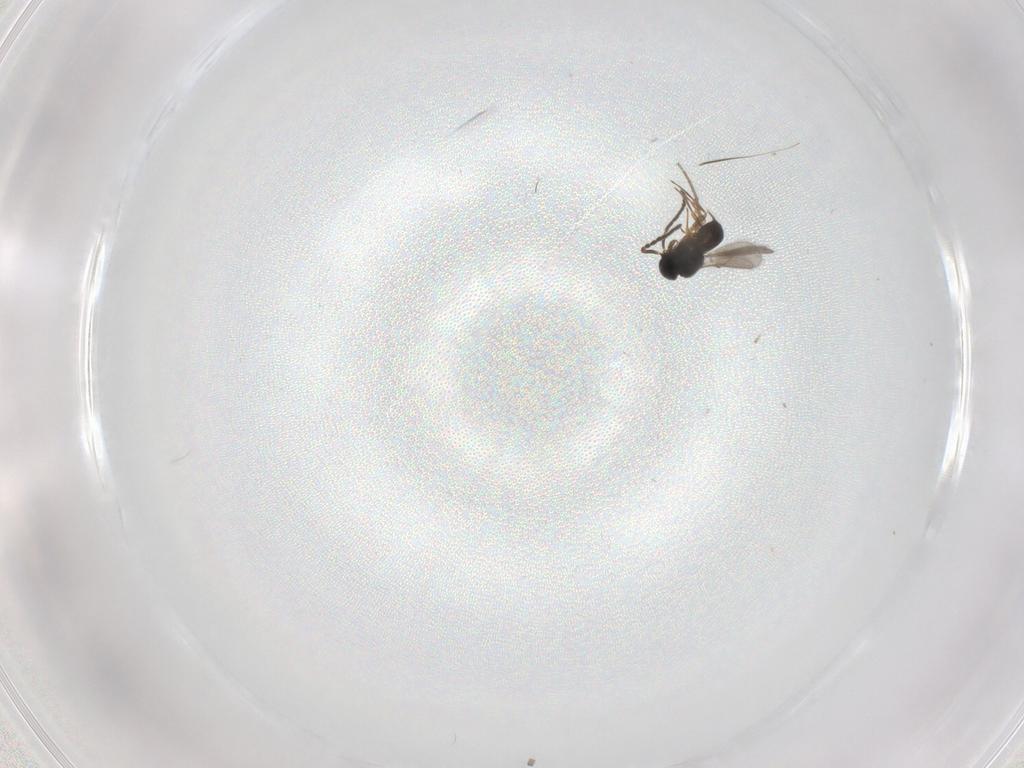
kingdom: Animalia
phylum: Arthropoda
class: Insecta
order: Hymenoptera
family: Scelionidae
